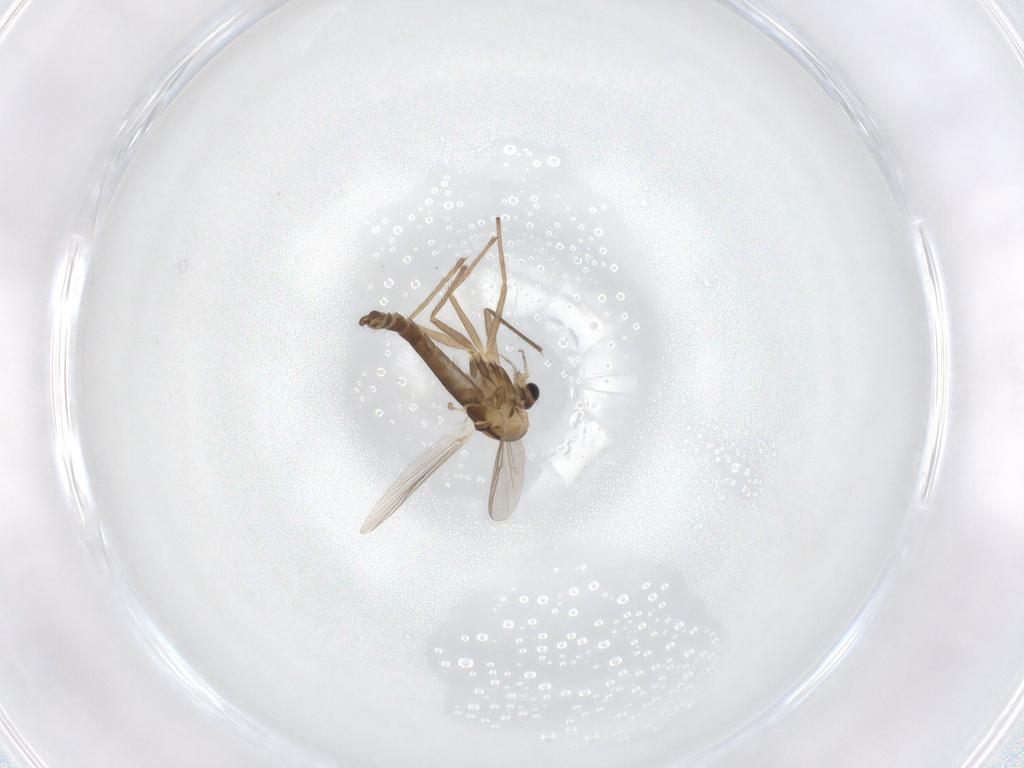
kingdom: Animalia
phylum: Arthropoda
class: Insecta
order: Diptera
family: Chironomidae
